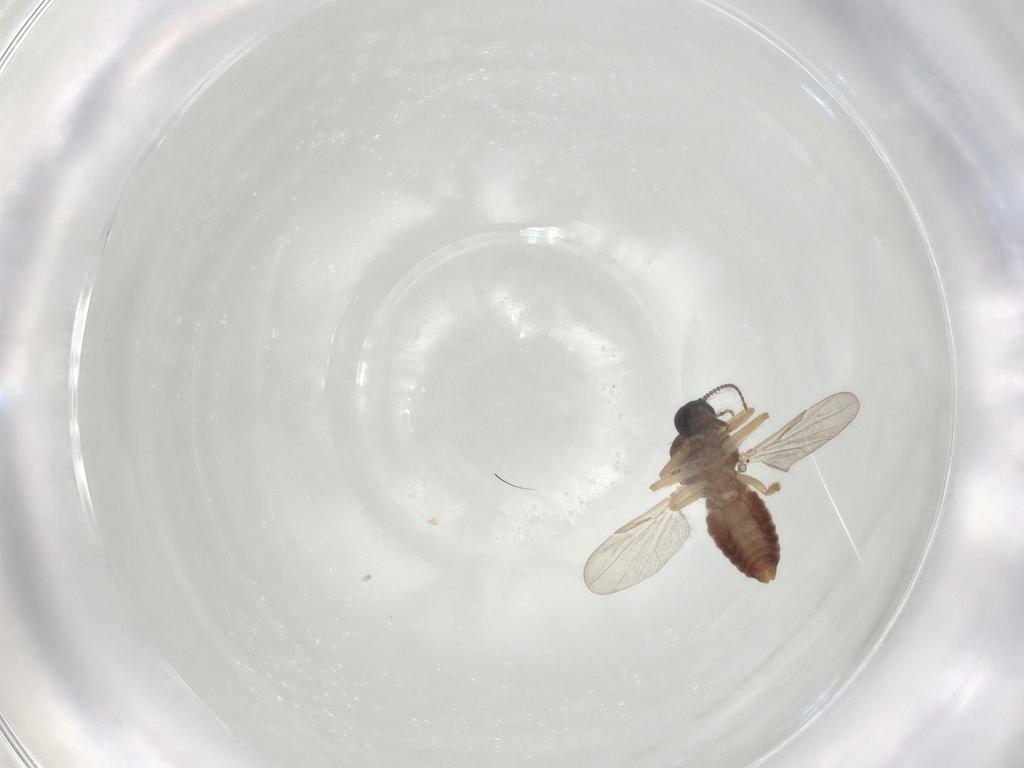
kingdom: Animalia
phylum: Arthropoda
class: Insecta
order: Diptera
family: Ceratopogonidae
